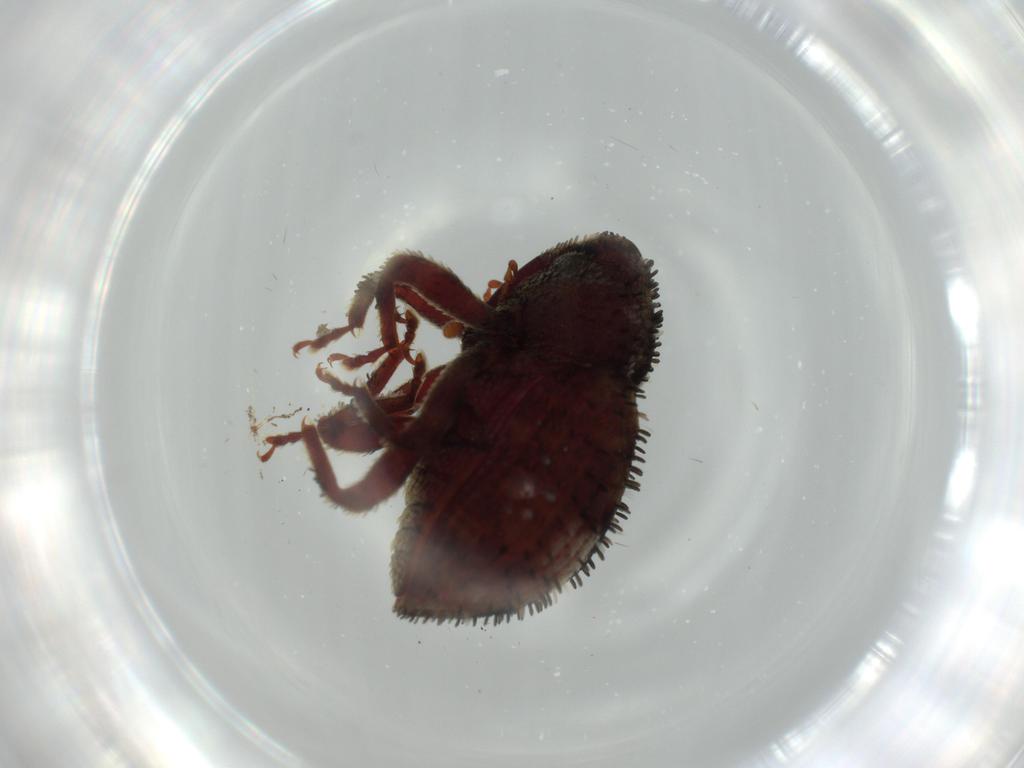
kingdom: Animalia
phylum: Arthropoda
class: Insecta
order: Coleoptera
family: Curculionidae
